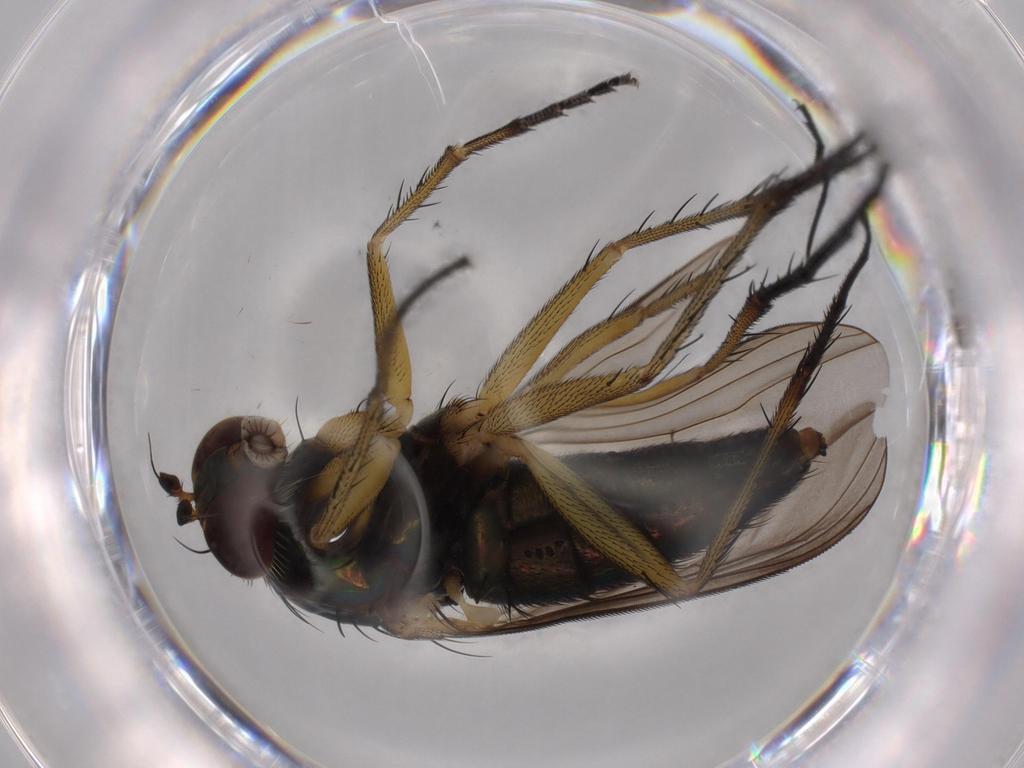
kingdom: Animalia
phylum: Arthropoda
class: Insecta
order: Diptera
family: Dolichopodidae
